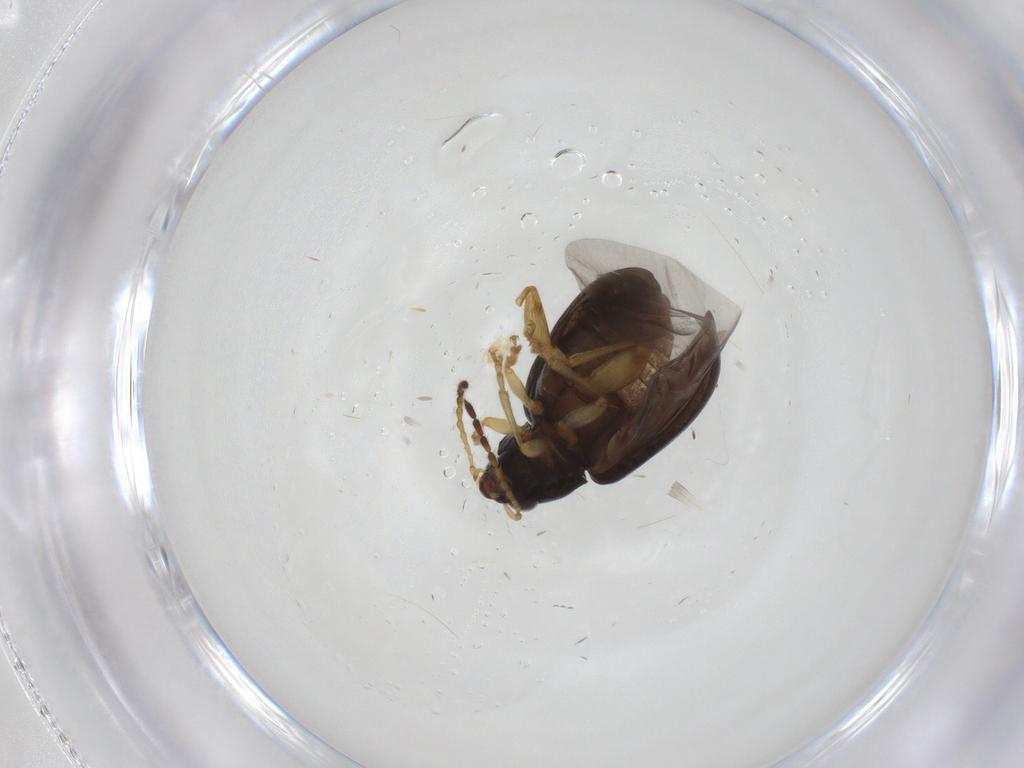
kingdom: Animalia
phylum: Arthropoda
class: Insecta
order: Coleoptera
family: Chrysomelidae
